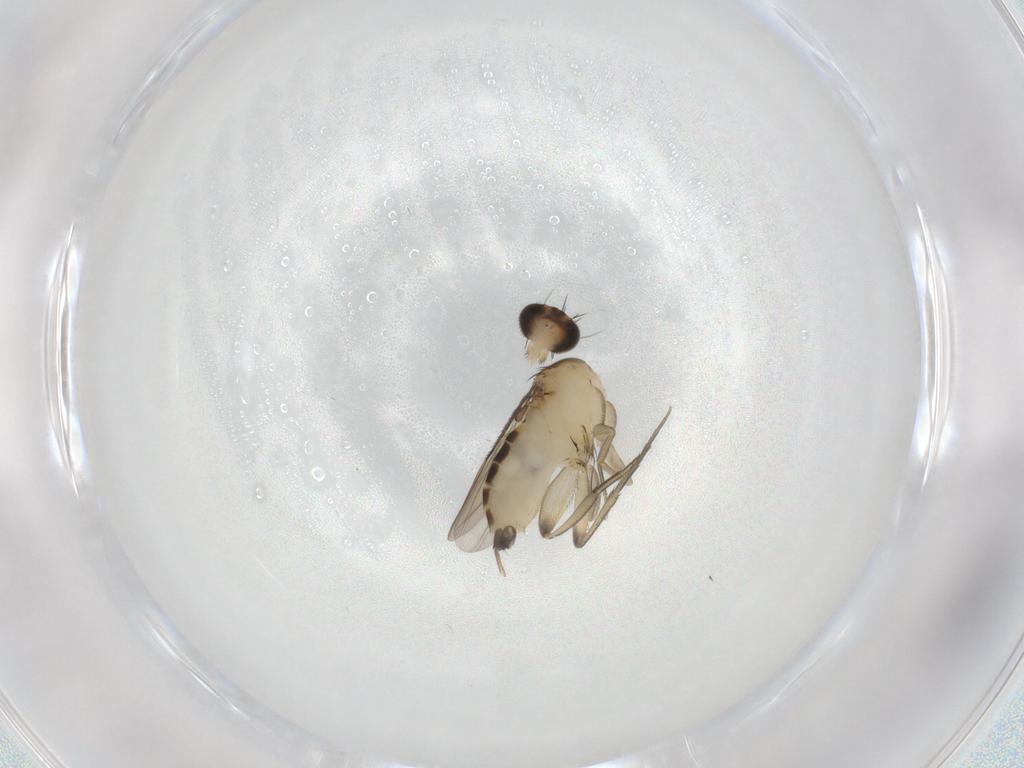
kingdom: Animalia
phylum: Arthropoda
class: Insecta
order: Diptera
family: Phoridae
